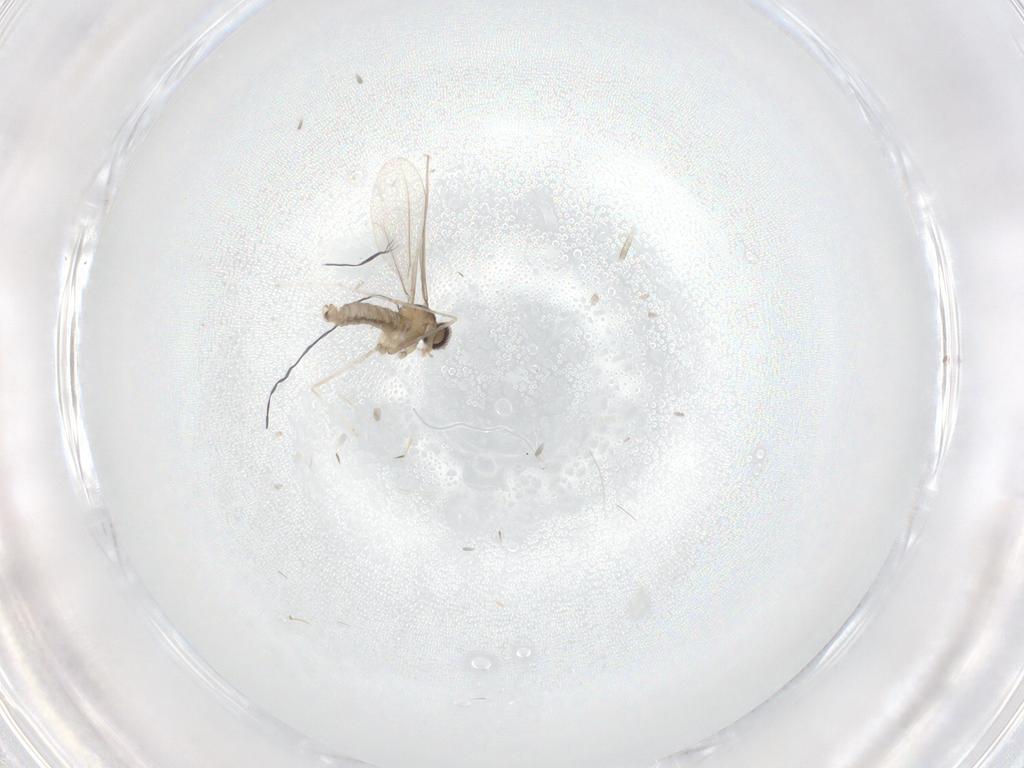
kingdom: Animalia
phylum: Arthropoda
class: Insecta
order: Diptera
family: Cecidomyiidae
